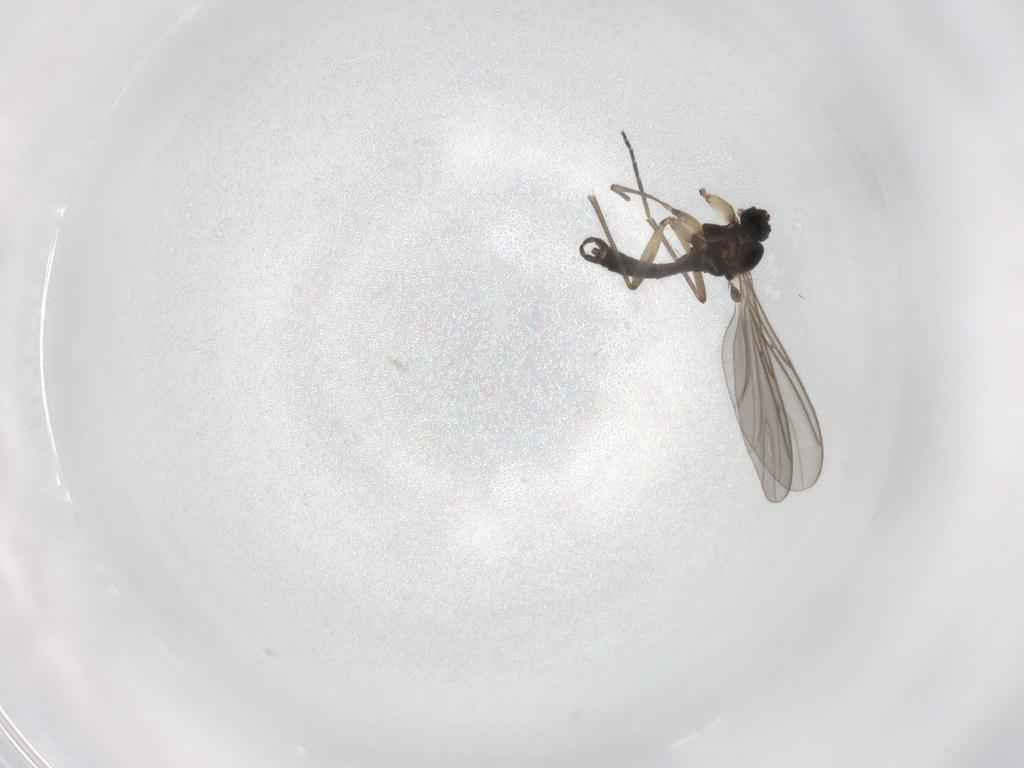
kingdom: Animalia
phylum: Arthropoda
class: Insecta
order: Diptera
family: Sciaridae
